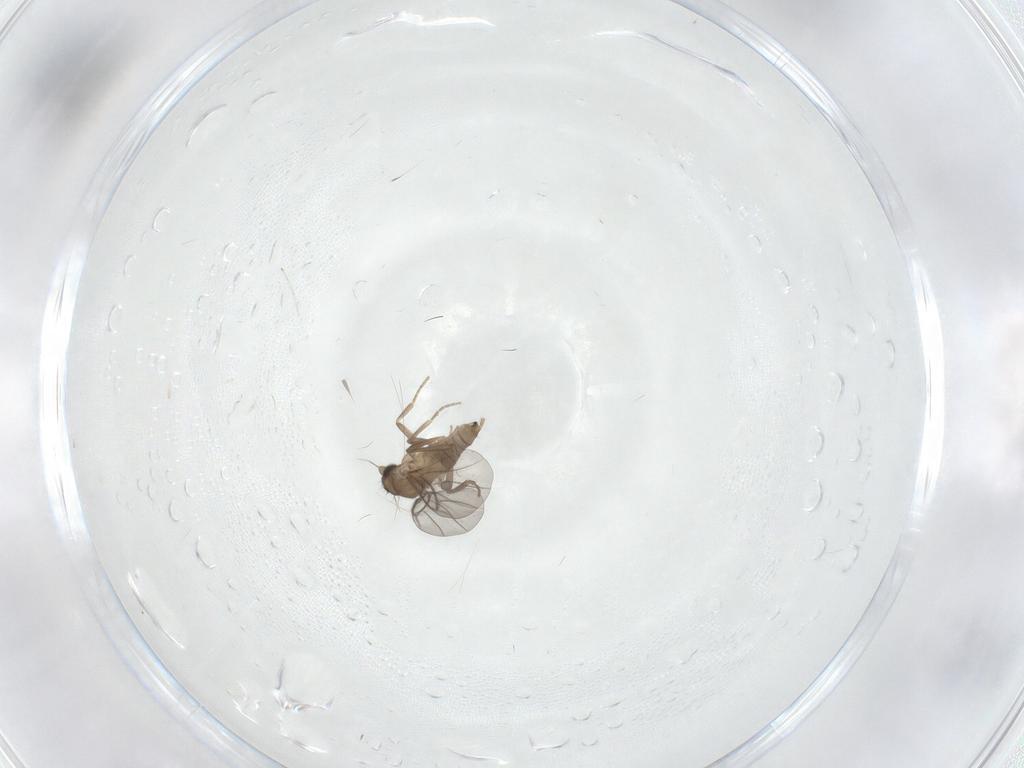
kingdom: Animalia
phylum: Arthropoda
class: Insecta
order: Diptera
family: Cecidomyiidae
